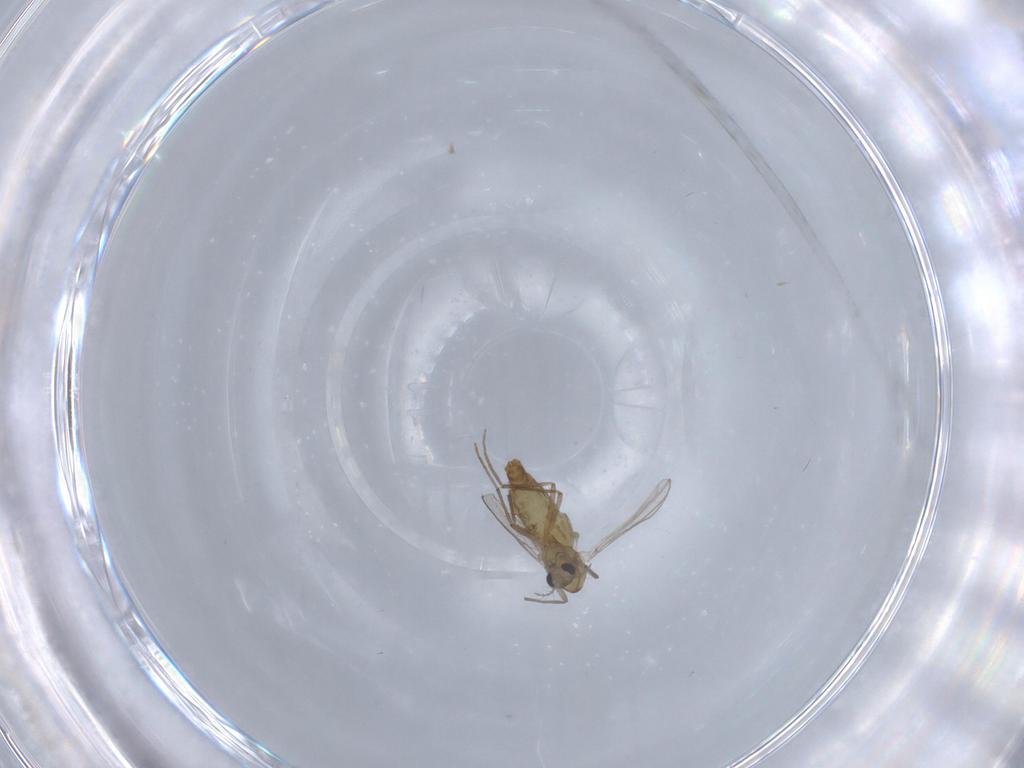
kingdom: Animalia
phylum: Arthropoda
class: Insecta
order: Diptera
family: Chironomidae
